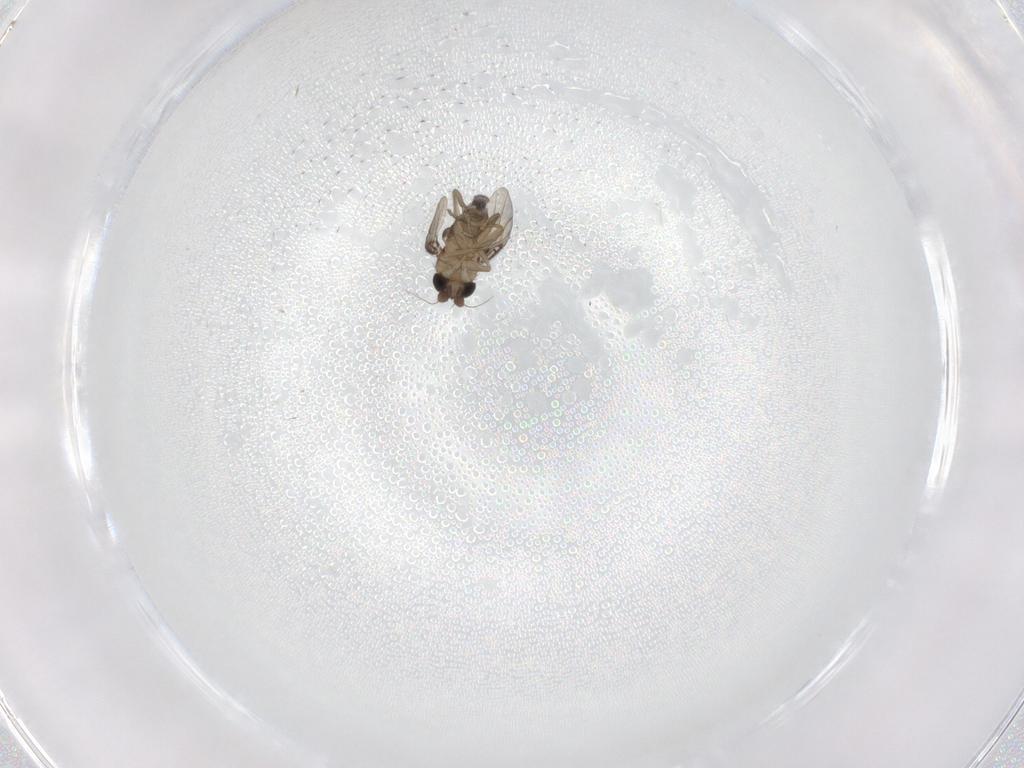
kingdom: Animalia
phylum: Arthropoda
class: Insecta
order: Diptera
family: Phoridae
